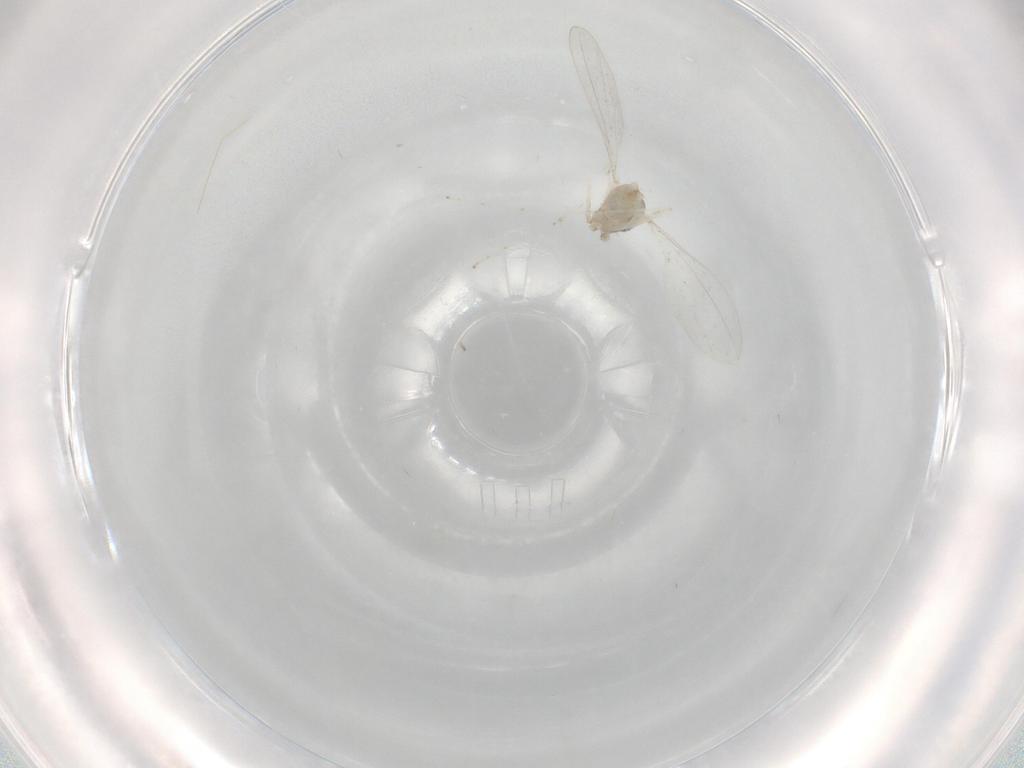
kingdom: Animalia
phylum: Arthropoda
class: Insecta
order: Diptera
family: Cecidomyiidae
